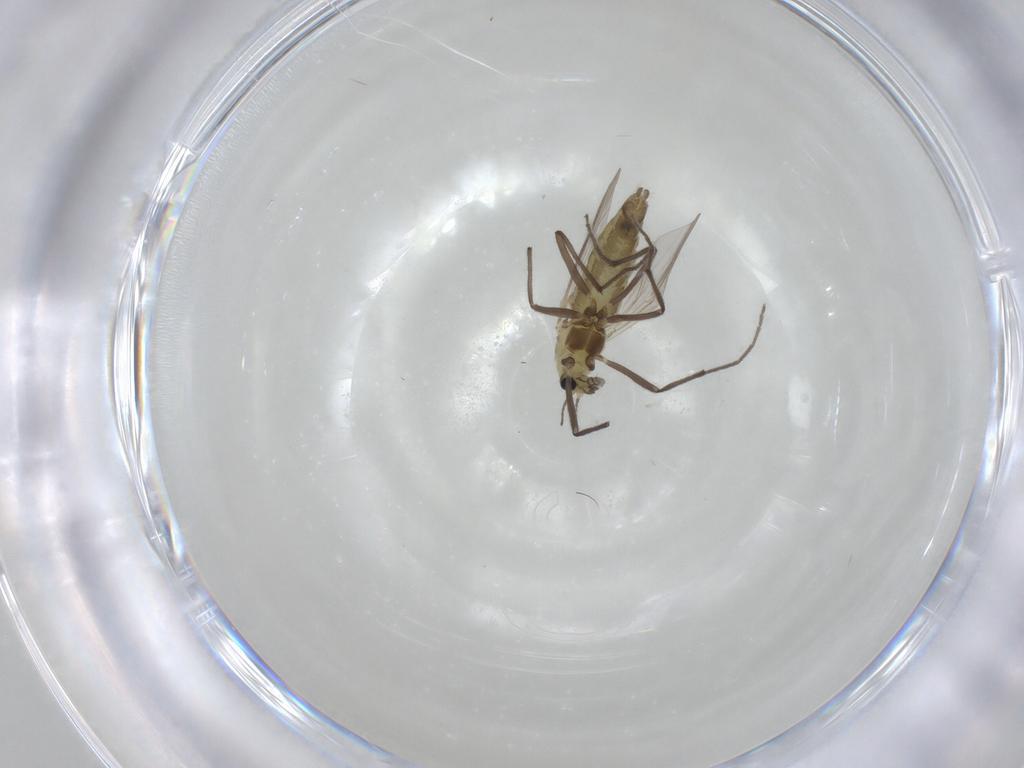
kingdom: Animalia
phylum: Arthropoda
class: Insecta
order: Diptera
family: Chironomidae
